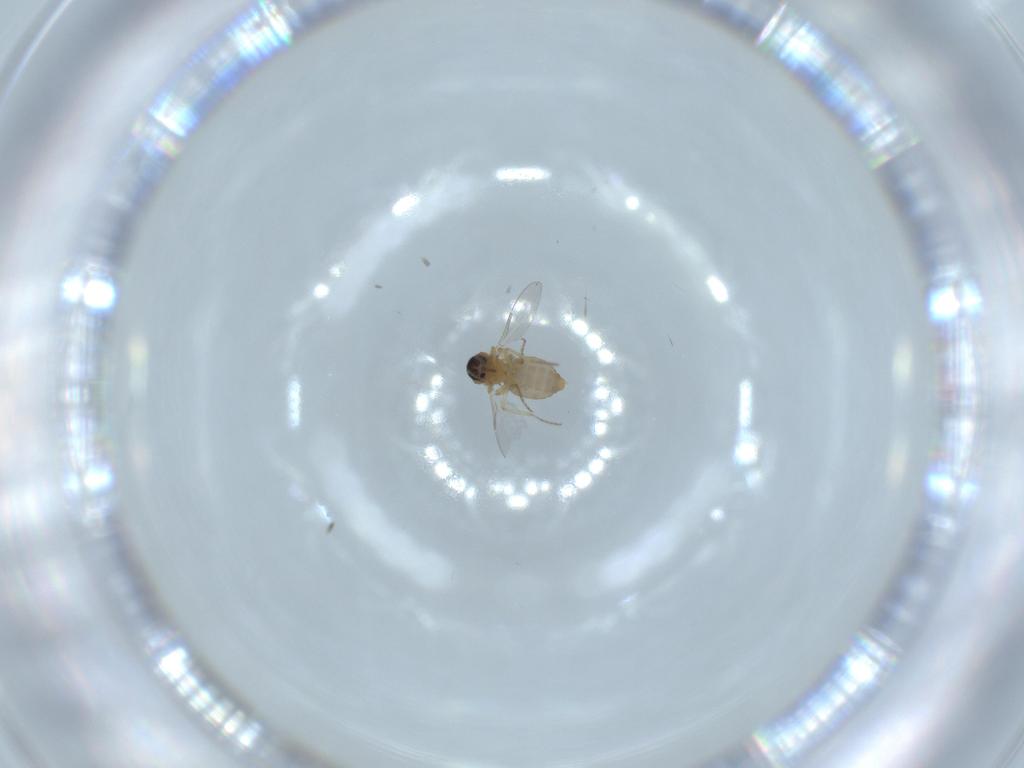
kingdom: Animalia
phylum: Arthropoda
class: Insecta
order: Diptera
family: Ceratopogonidae
